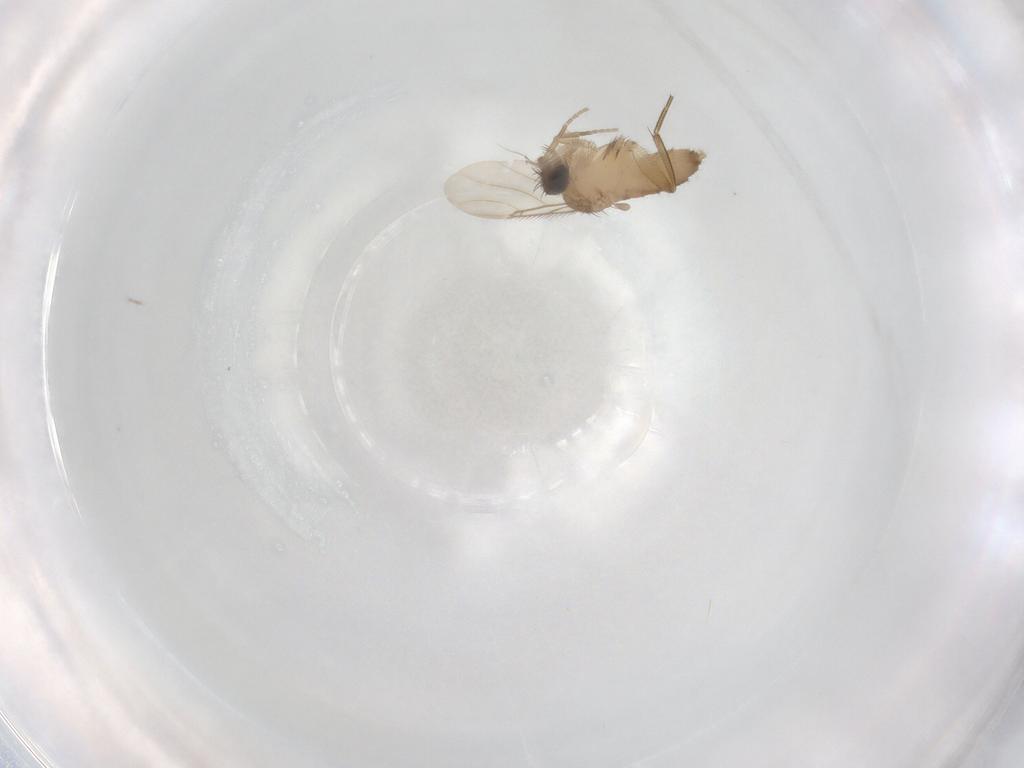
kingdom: Animalia
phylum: Arthropoda
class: Insecta
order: Diptera
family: Phoridae
